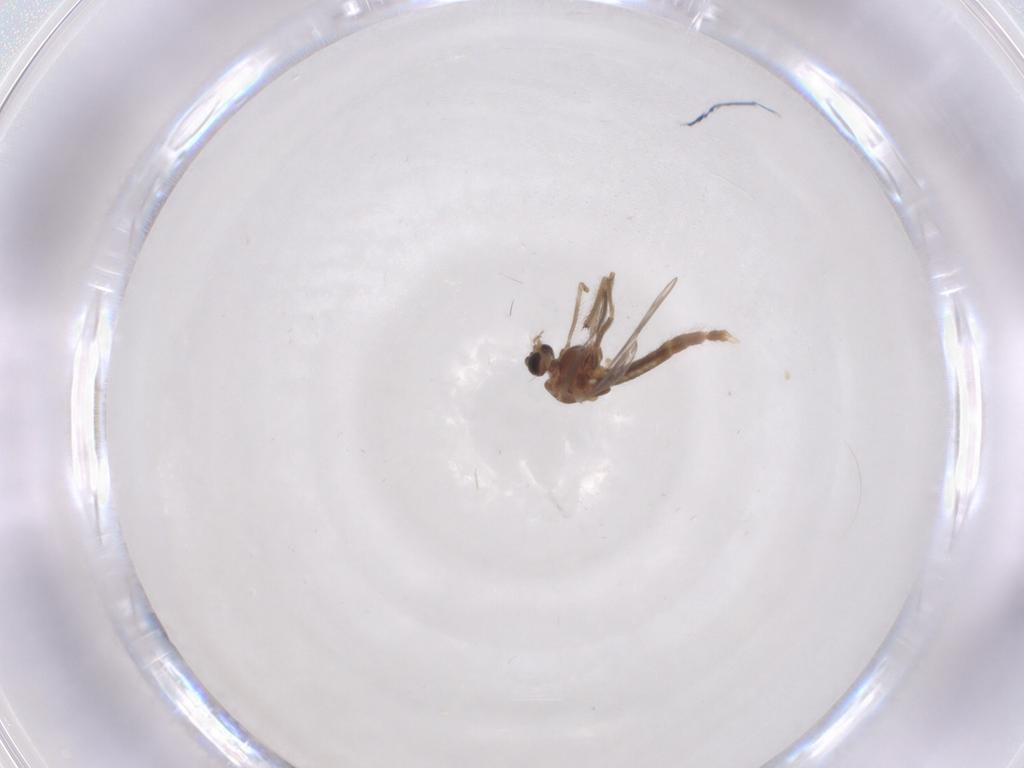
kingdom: Animalia
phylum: Arthropoda
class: Insecta
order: Diptera
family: Chironomidae
